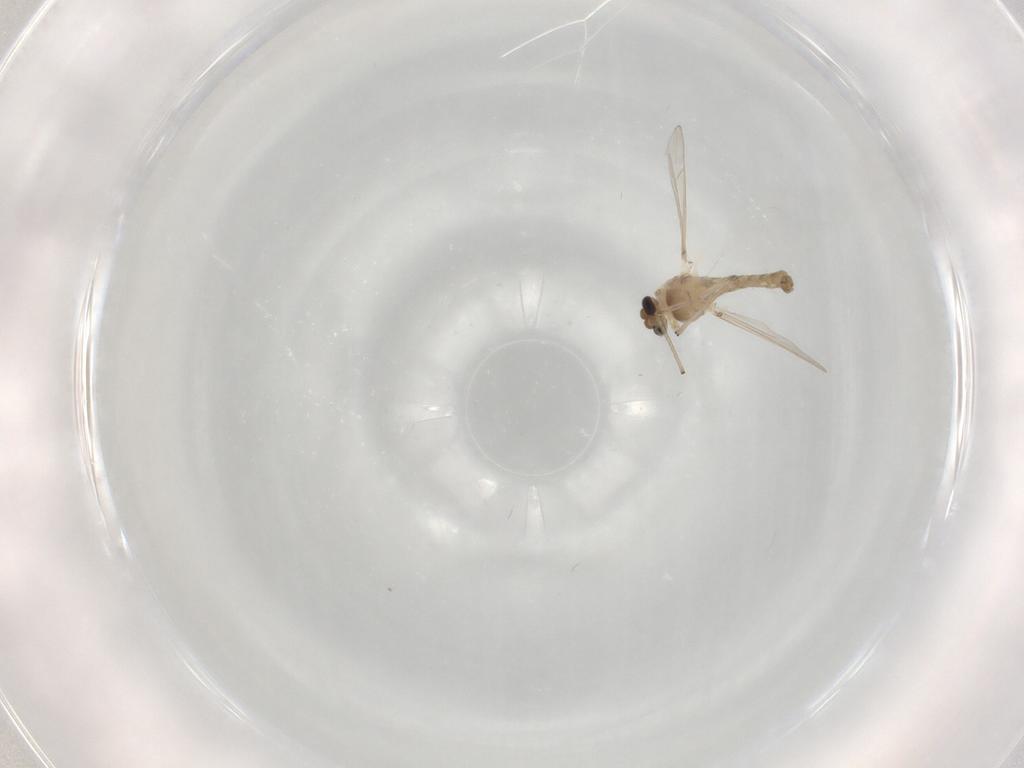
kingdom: Animalia
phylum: Arthropoda
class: Insecta
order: Diptera
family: Chironomidae
